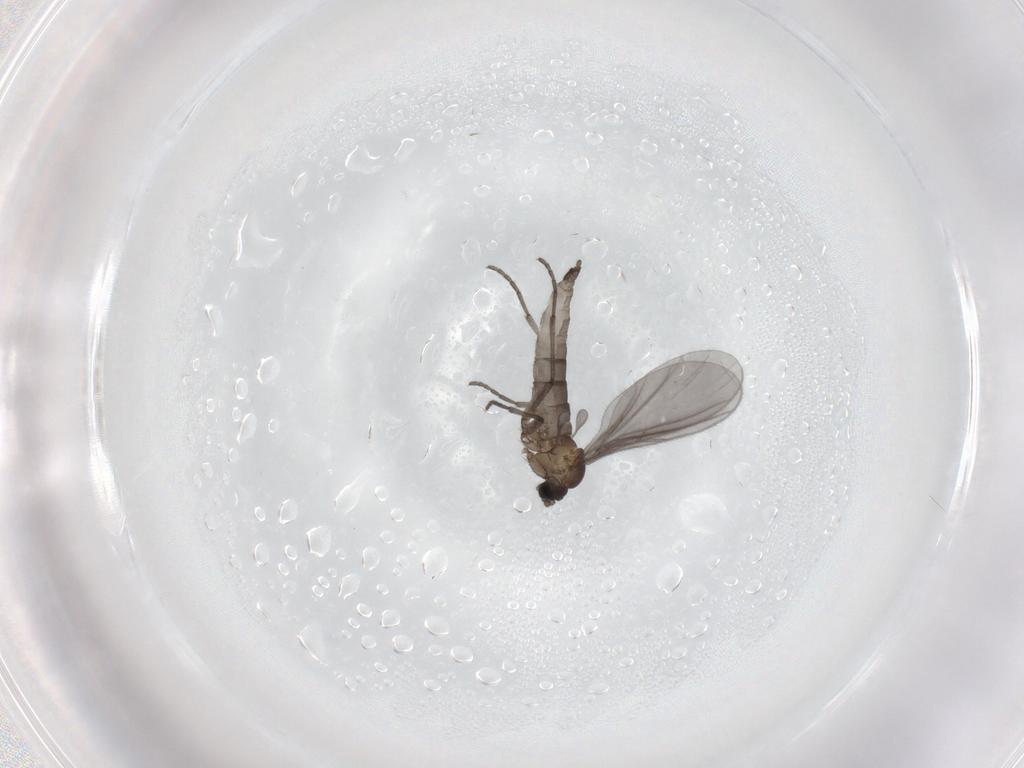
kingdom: Animalia
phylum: Arthropoda
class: Insecta
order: Diptera
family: Sciaridae
